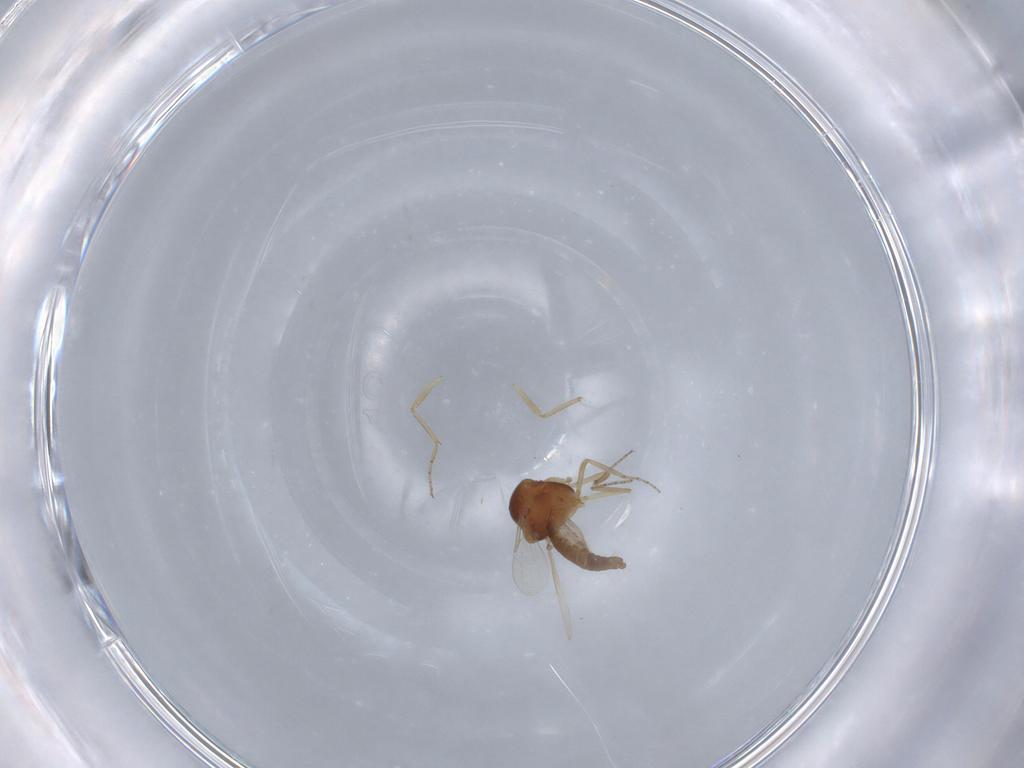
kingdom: Animalia
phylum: Arthropoda
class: Insecta
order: Diptera
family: Ceratopogonidae
